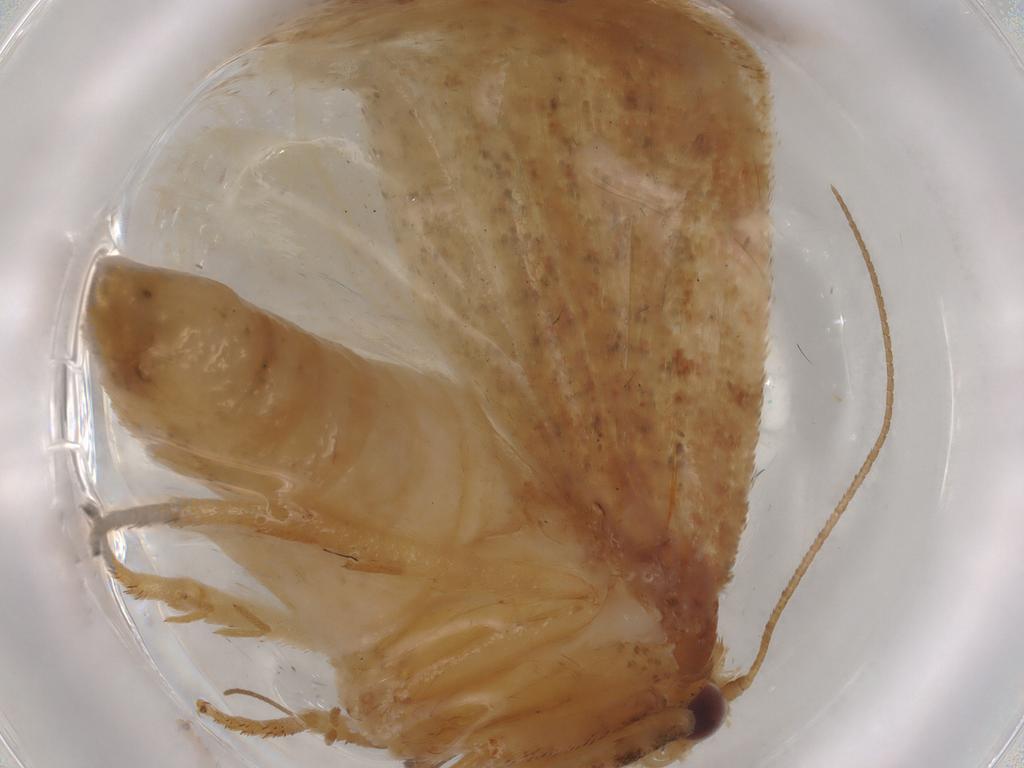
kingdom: Animalia
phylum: Arthropoda
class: Insecta
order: Lepidoptera
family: Tortricidae
